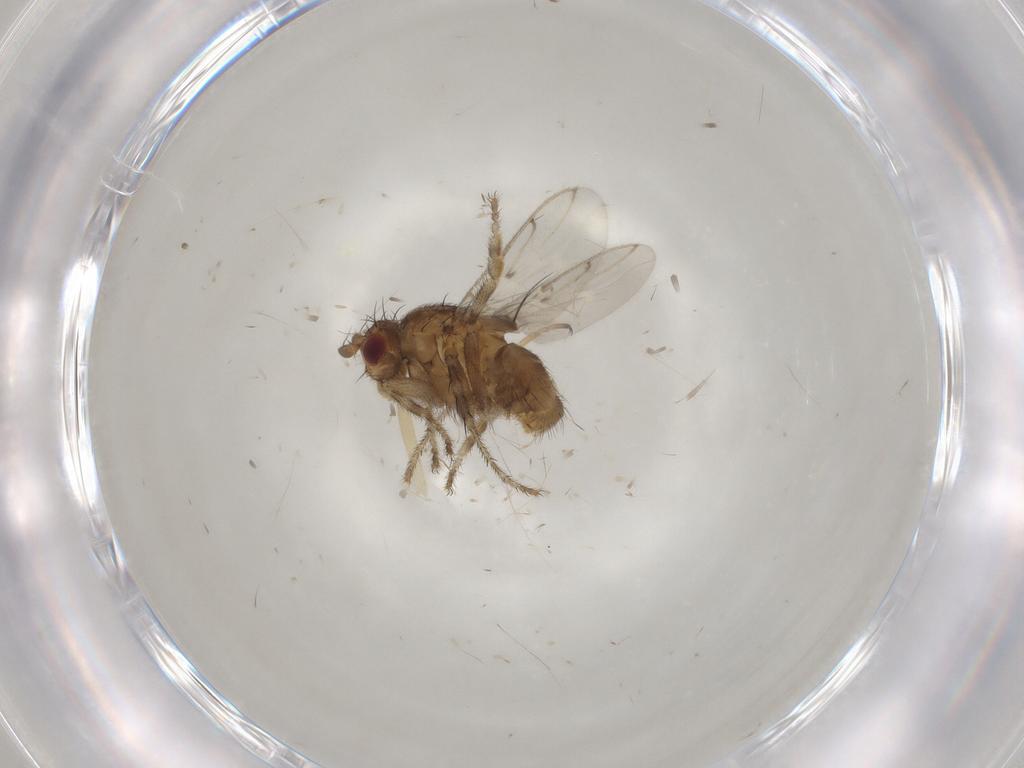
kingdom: Animalia
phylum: Arthropoda
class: Insecta
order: Diptera
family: Sphaeroceridae
